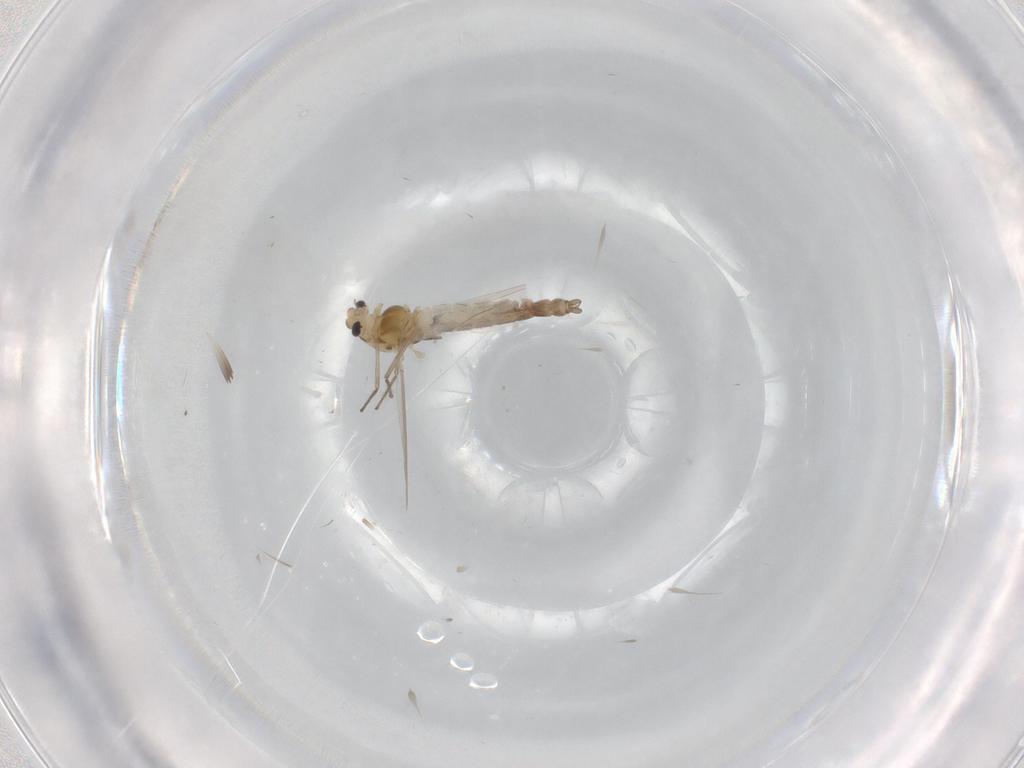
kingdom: Animalia
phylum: Arthropoda
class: Insecta
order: Diptera
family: Chironomidae
